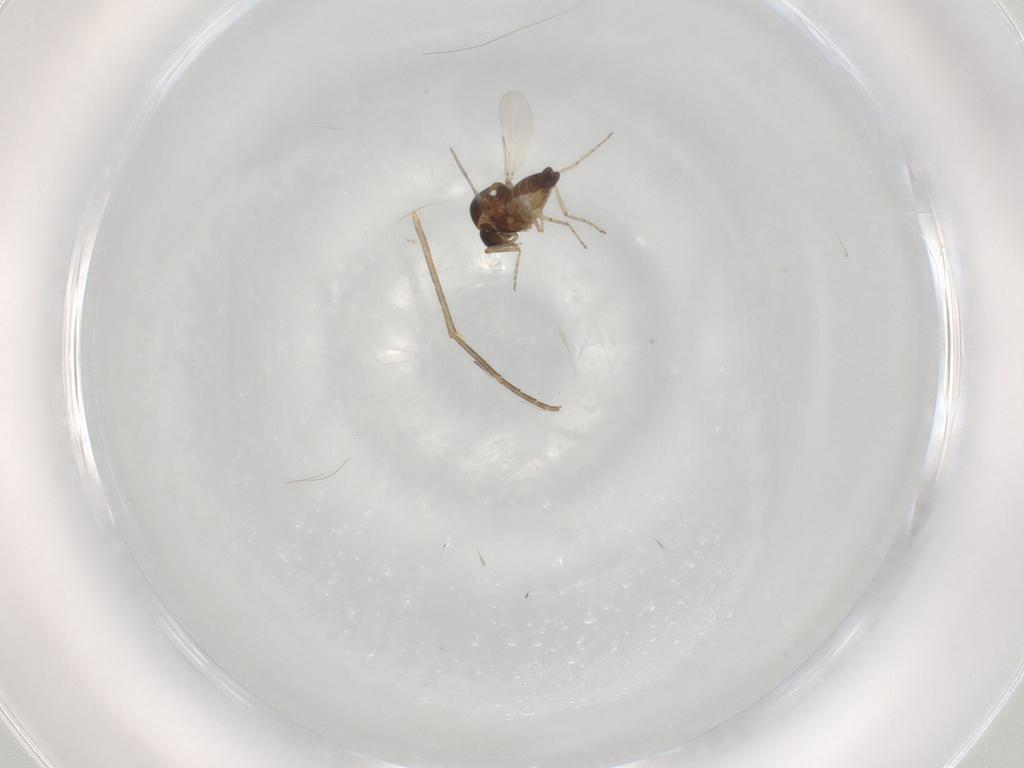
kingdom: Animalia
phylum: Arthropoda
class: Insecta
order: Diptera
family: Ceratopogonidae
